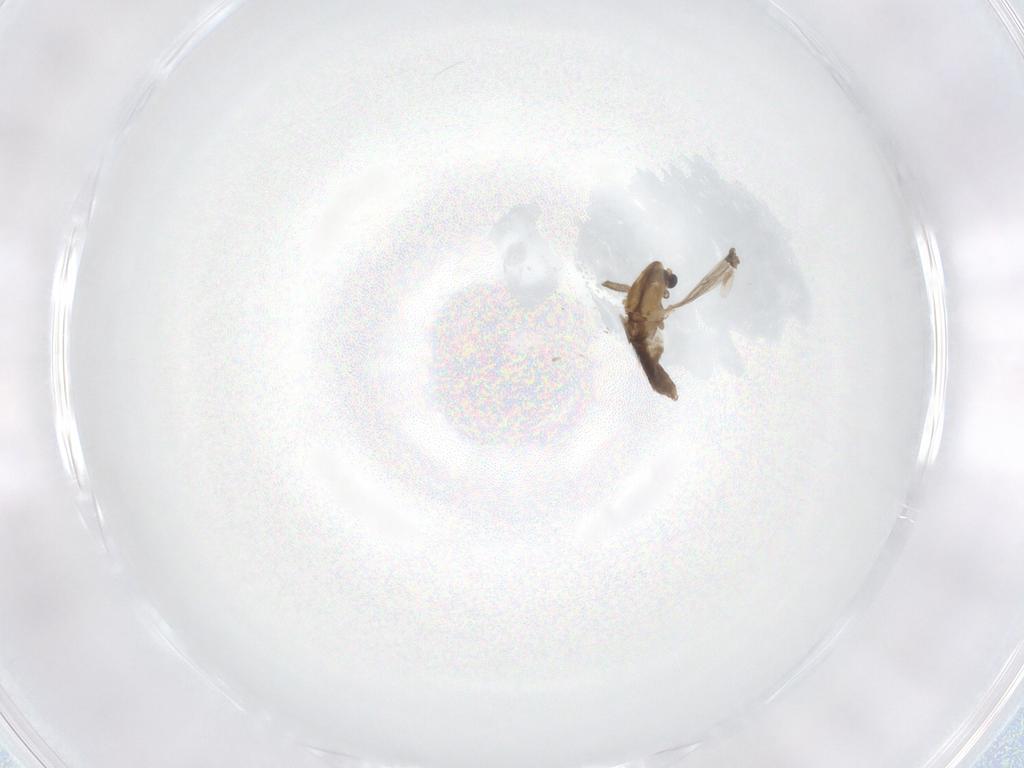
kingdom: Animalia
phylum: Arthropoda
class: Insecta
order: Diptera
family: Chironomidae
